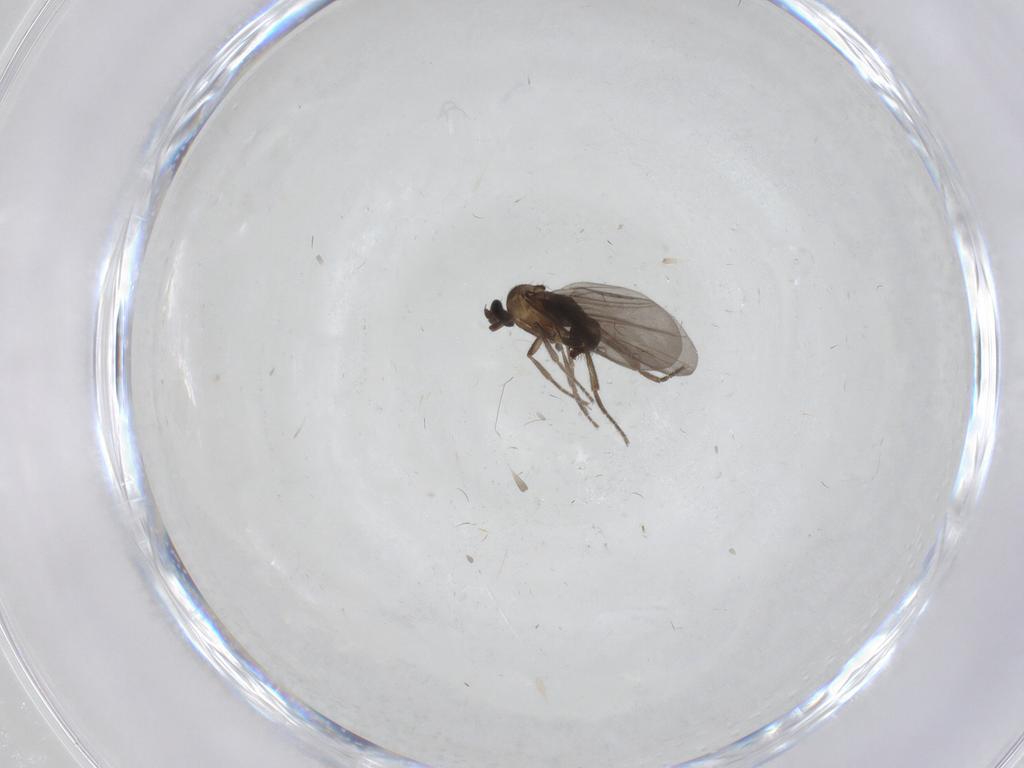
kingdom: Animalia
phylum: Arthropoda
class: Insecta
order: Diptera
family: Phoridae
